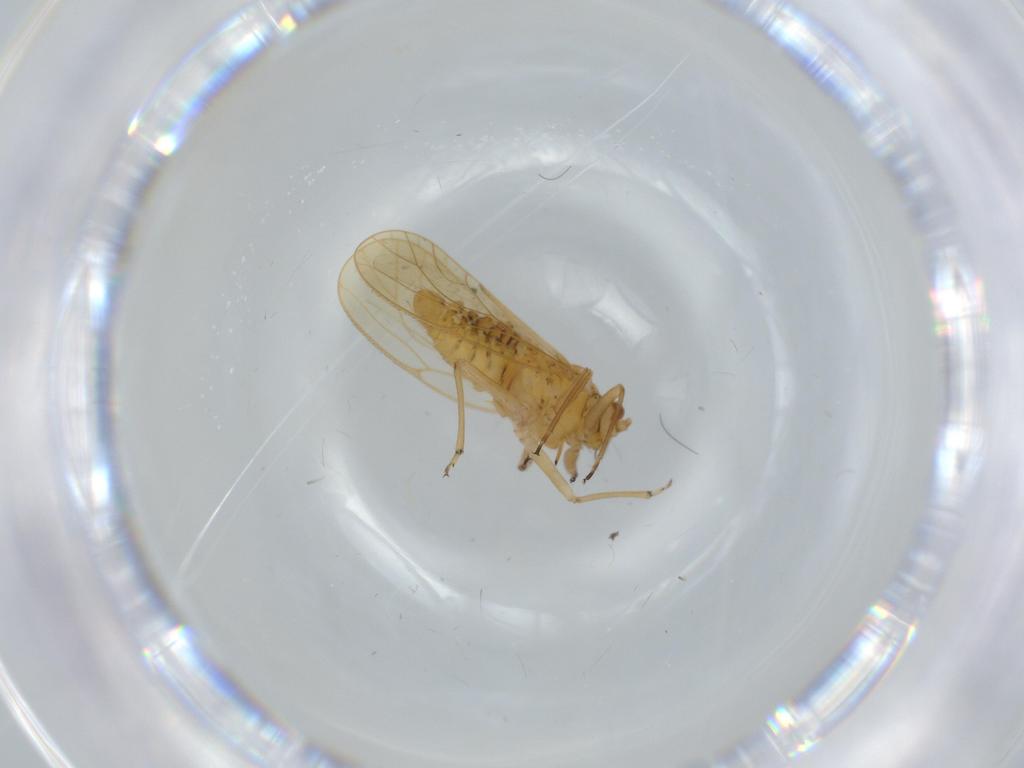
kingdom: Animalia
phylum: Arthropoda
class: Insecta
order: Hemiptera
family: Psyllidae
